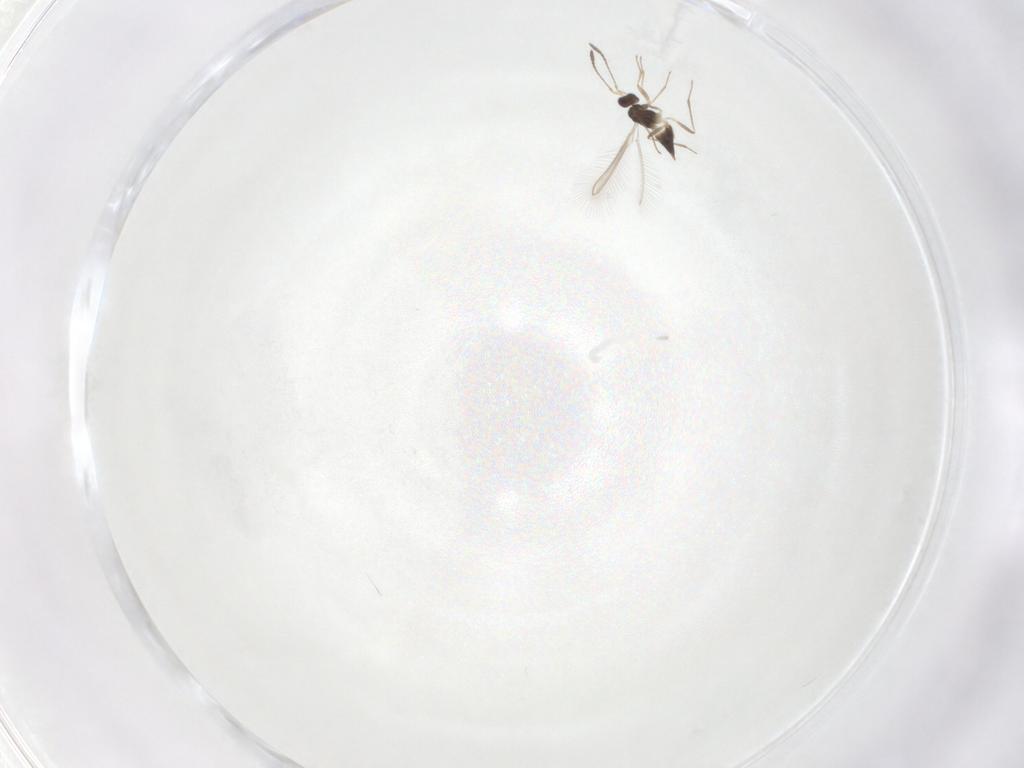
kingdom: Animalia
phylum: Arthropoda
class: Insecta
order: Hymenoptera
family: Mymaridae
